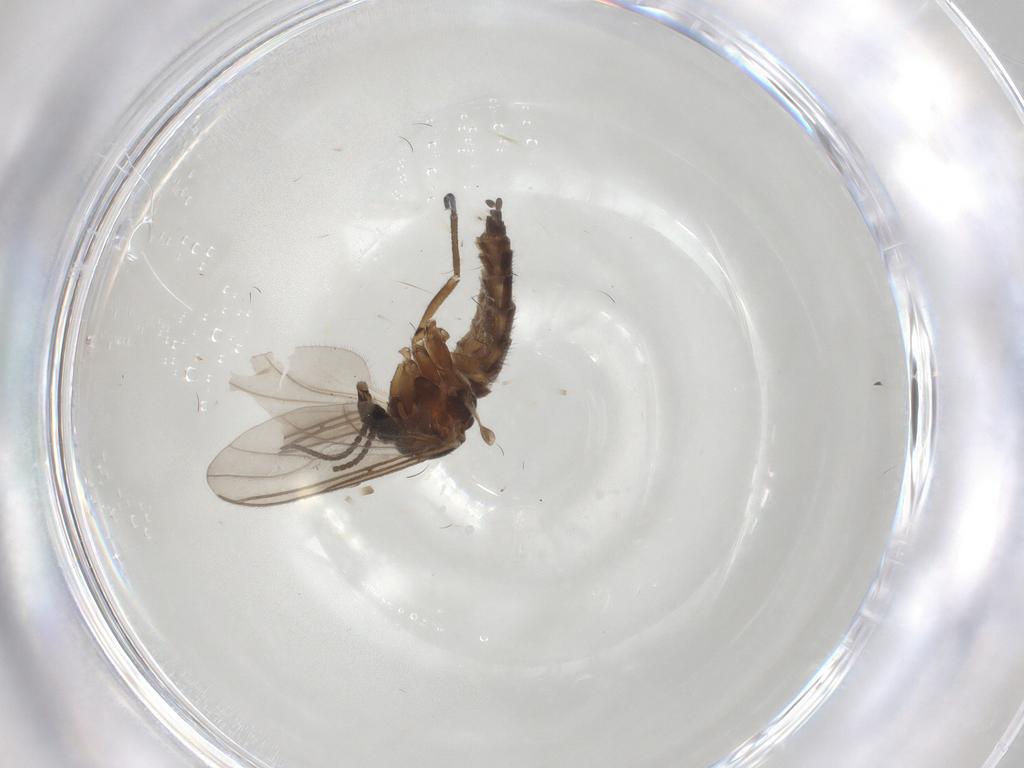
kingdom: Animalia
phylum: Arthropoda
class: Insecta
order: Diptera
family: Sciaridae
